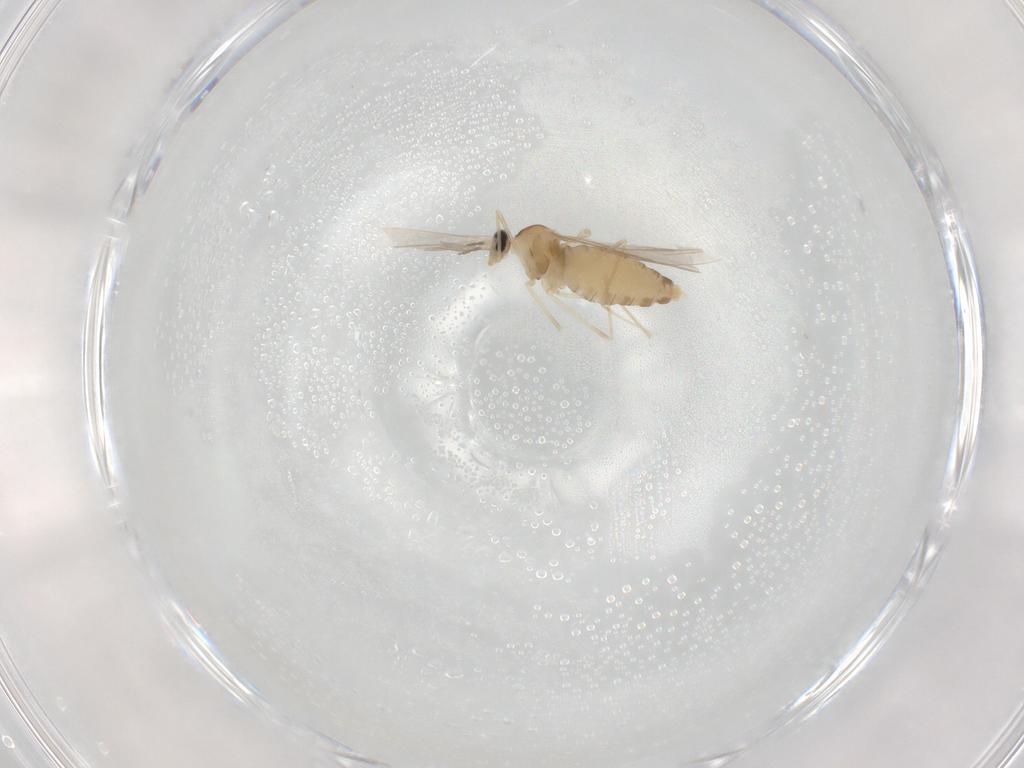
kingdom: Animalia
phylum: Arthropoda
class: Insecta
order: Diptera
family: Cecidomyiidae
